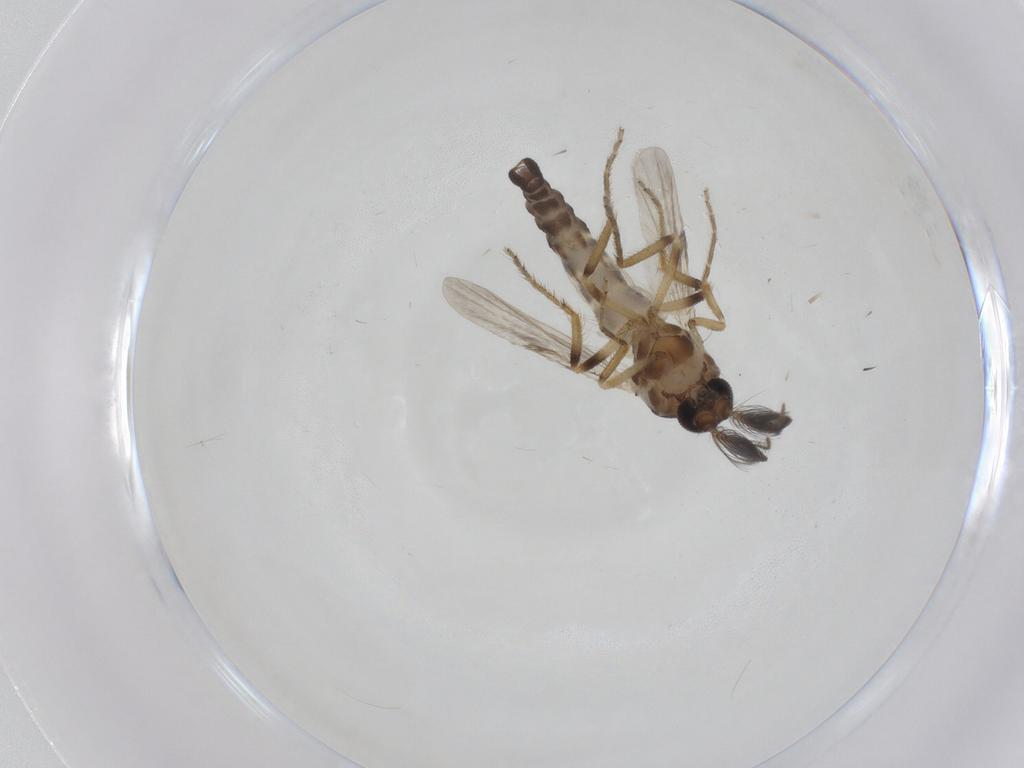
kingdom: Animalia
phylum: Arthropoda
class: Insecta
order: Diptera
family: Ceratopogonidae
